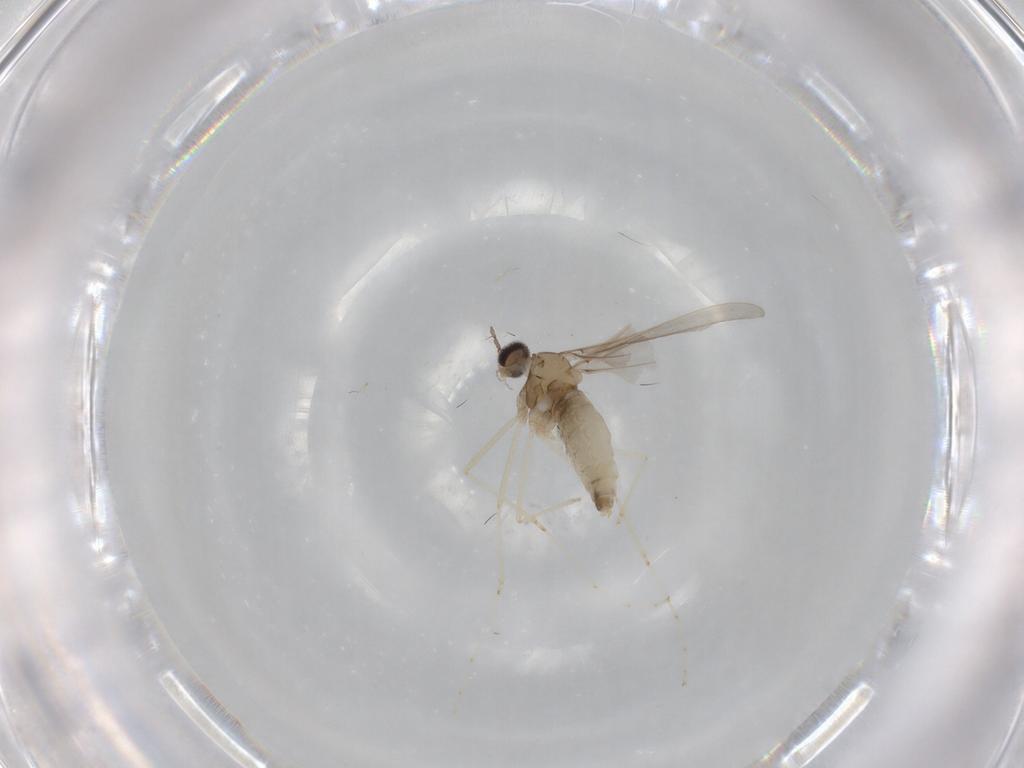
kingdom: Animalia
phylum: Arthropoda
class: Insecta
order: Diptera
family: Cecidomyiidae
